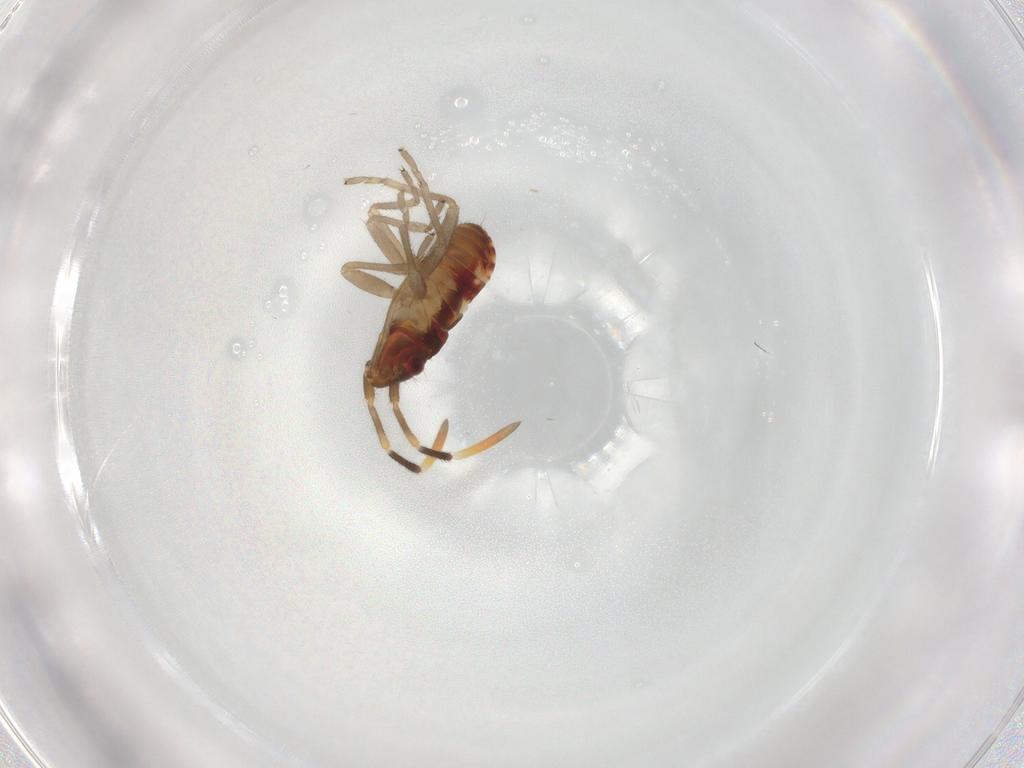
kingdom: Animalia
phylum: Arthropoda
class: Insecta
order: Hemiptera
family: Rhyparochromidae
